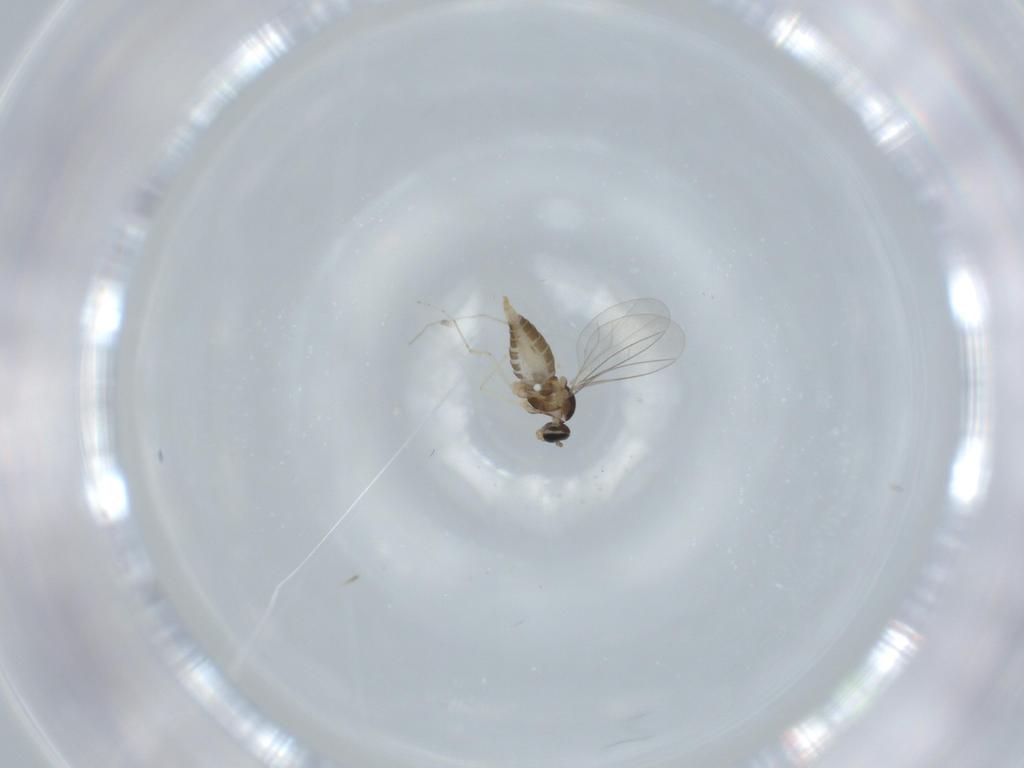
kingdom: Animalia
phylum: Arthropoda
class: Insecta
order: Diptera
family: Cecidomyiidae
